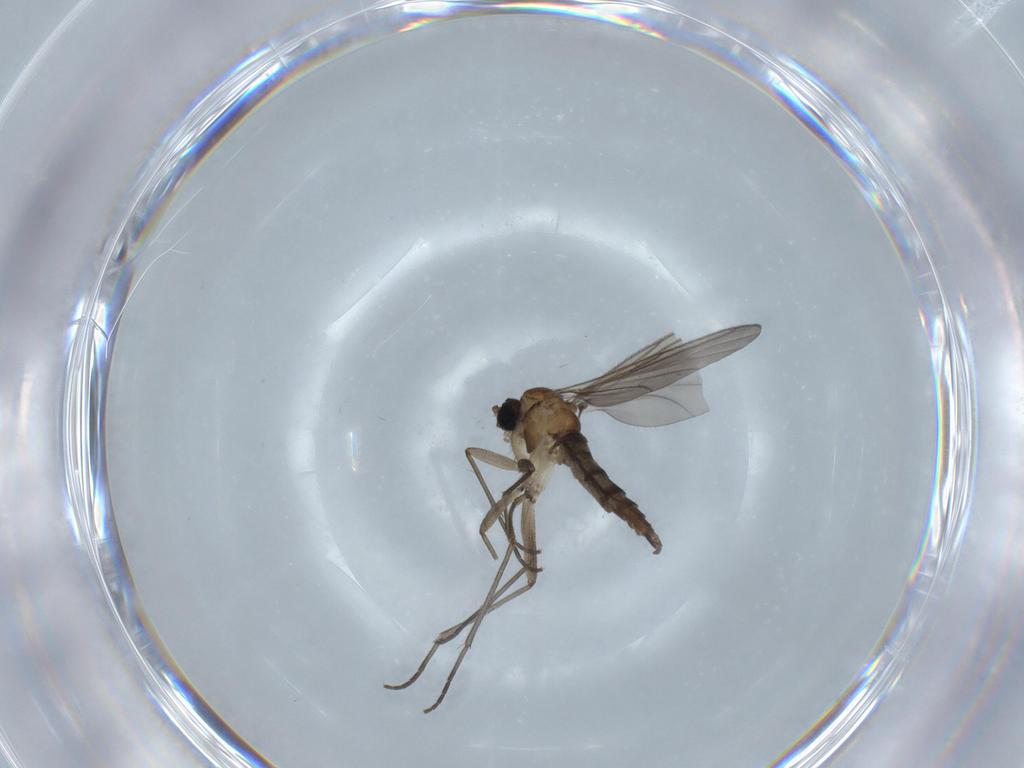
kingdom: Animalia
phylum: Arthropoda
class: Insecta
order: Diptera
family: Sciaridae
